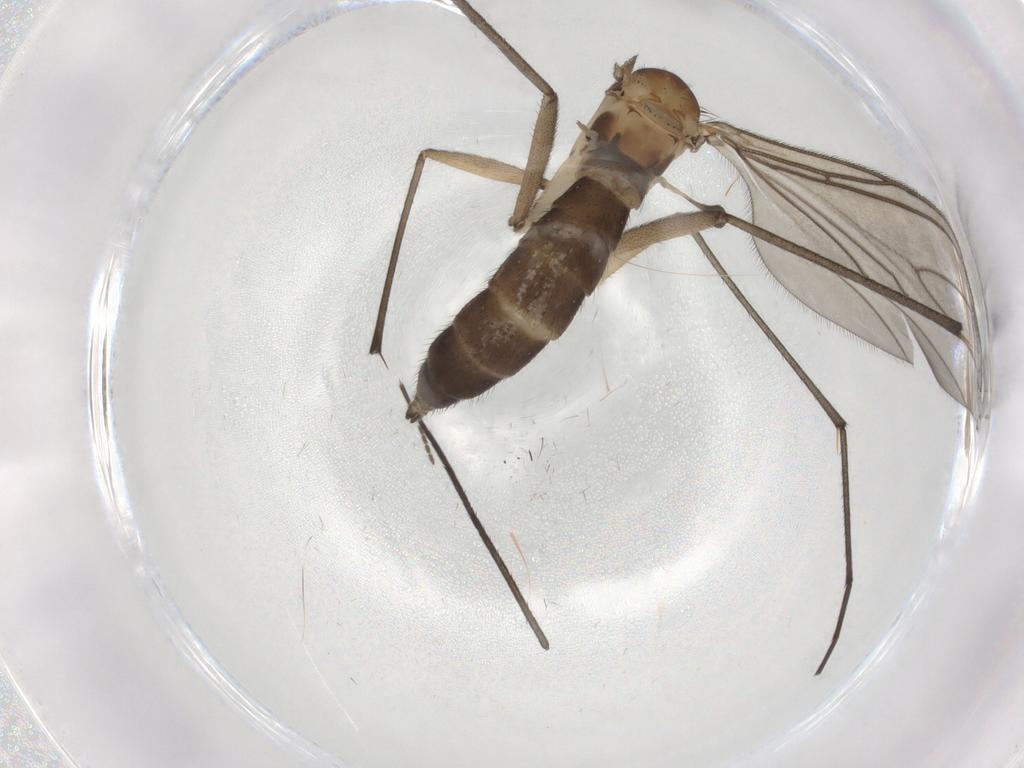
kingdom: Animalia
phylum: Arthropoda
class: Insecta
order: Diptera
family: Sciaridae
